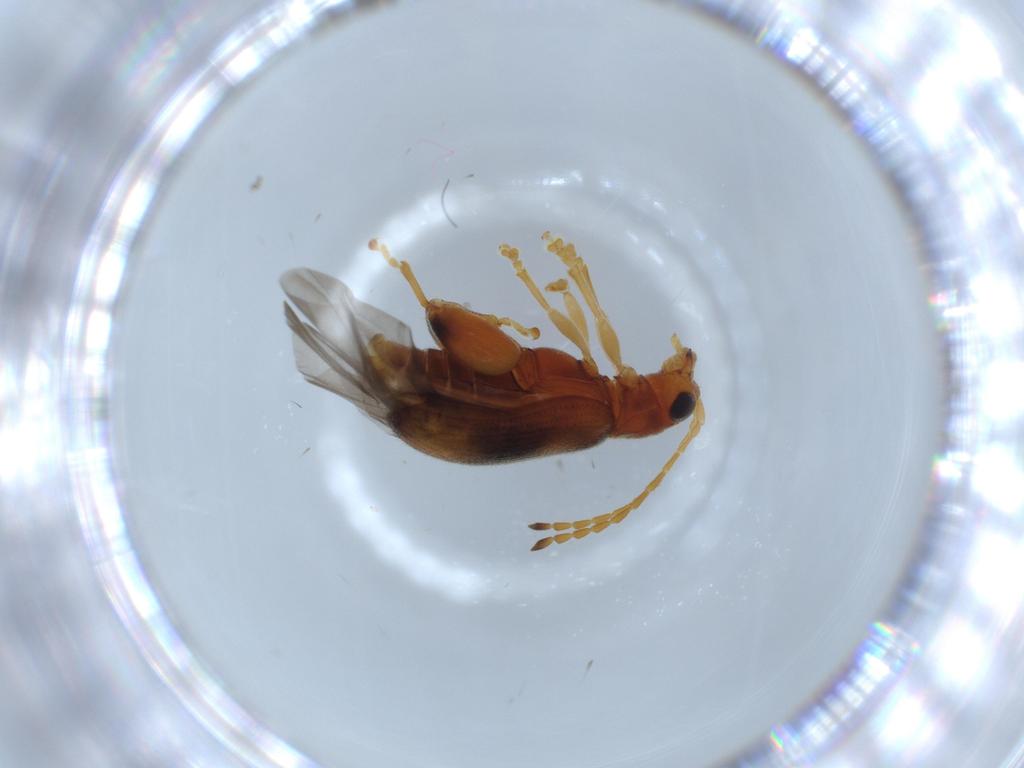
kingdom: Animalia
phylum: Arthropoda
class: Insecta
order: Coleoptera
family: Chrysomelidae
